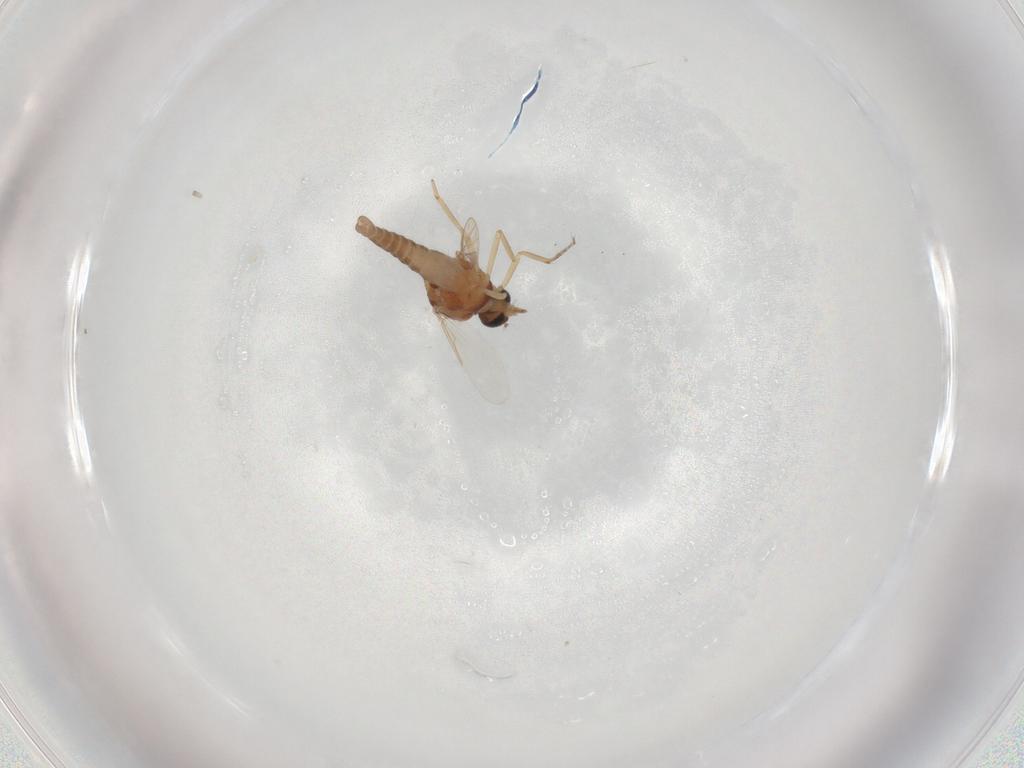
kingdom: Animalia
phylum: Arthropoda
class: Insecta
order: Diptera
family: Ceratopogonidae
